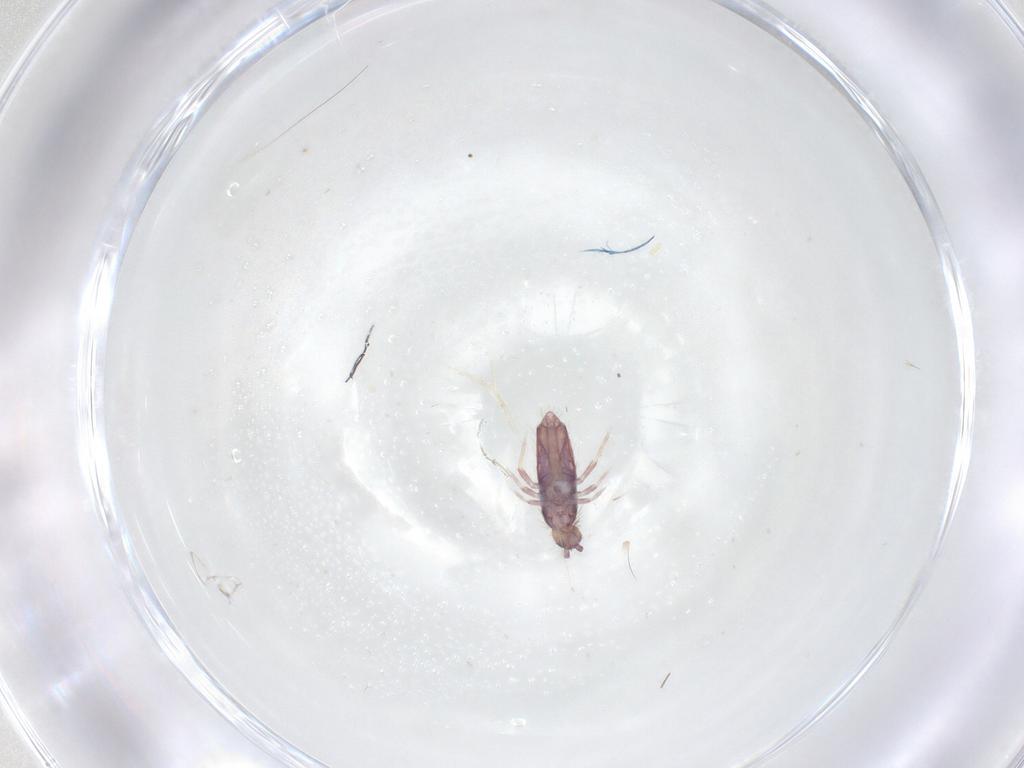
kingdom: Animalia
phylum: Arthropoda
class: Collembola
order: Entomobryomorpha
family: Entomobryidae
